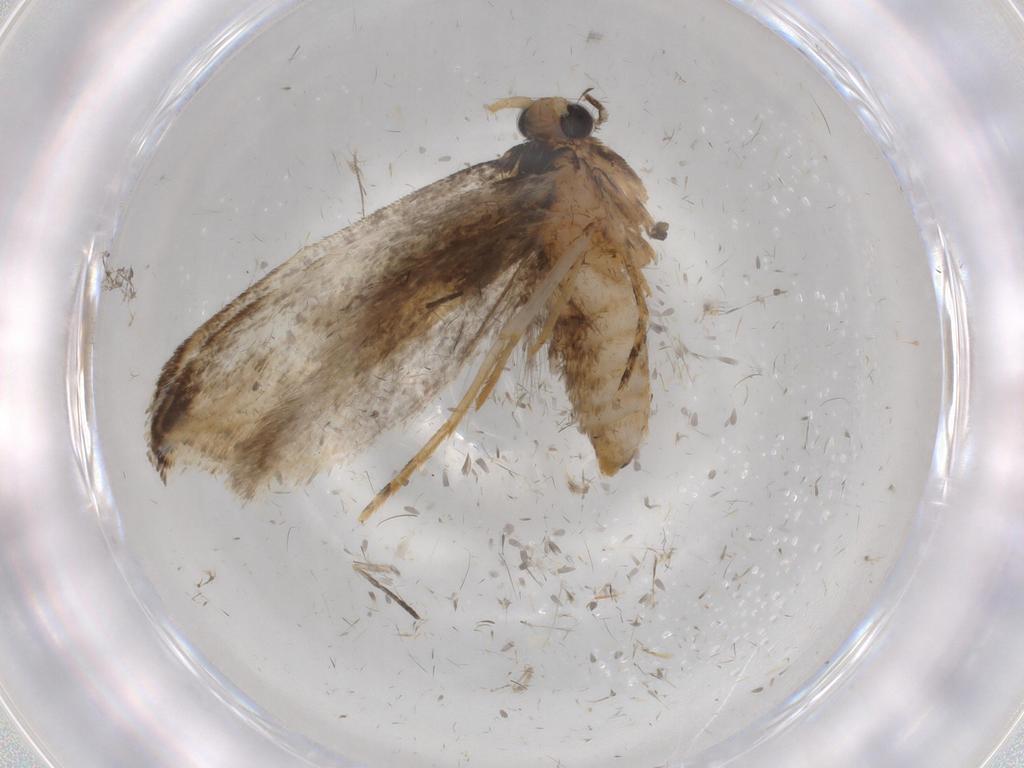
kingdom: Animalia
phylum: Arthropoda
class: Insecta
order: Lepidoptera
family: Tineidae
